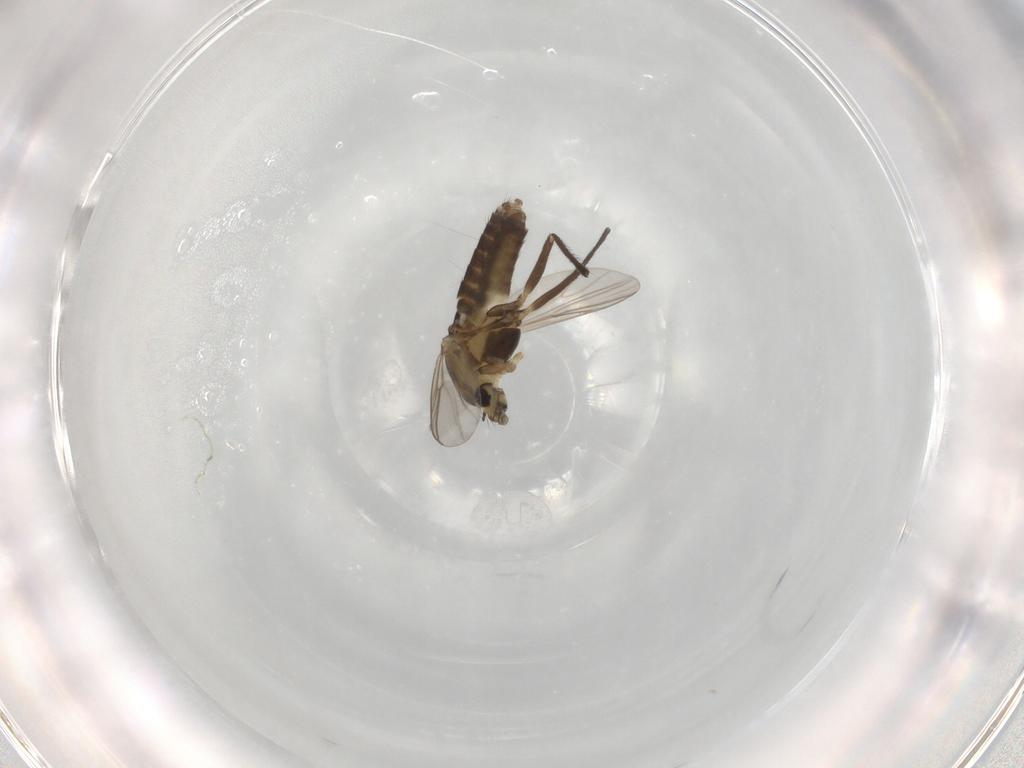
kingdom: Animalia
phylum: Arthropoda
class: Insecta
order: Diptera
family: Chironomidae
